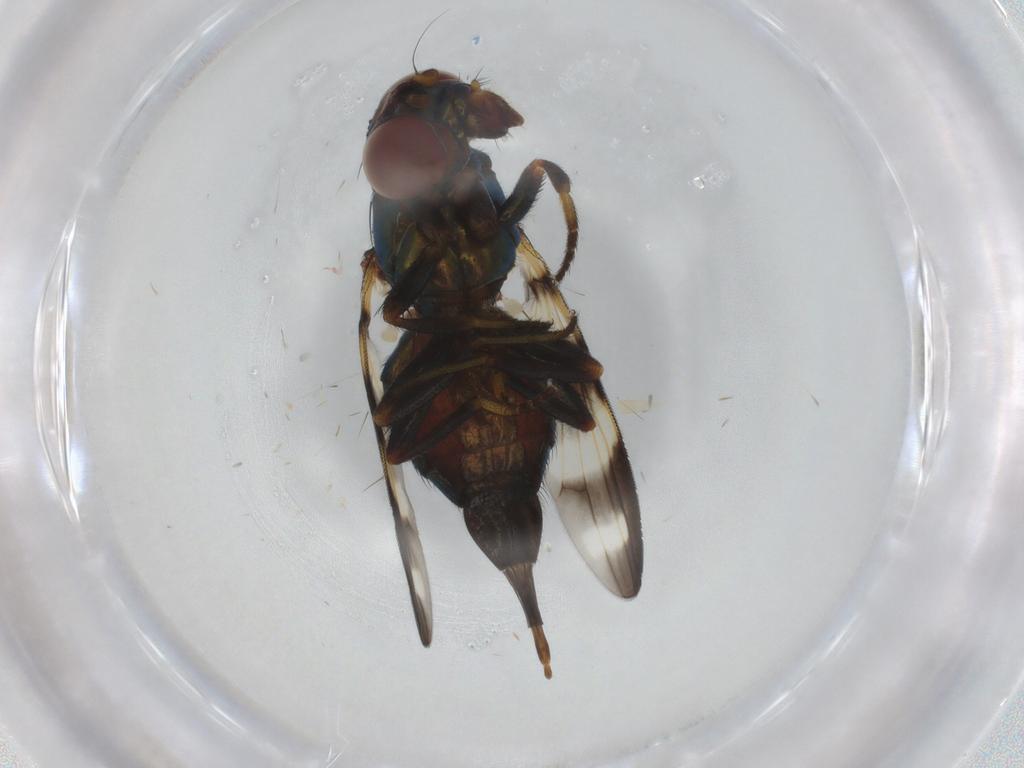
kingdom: Animalia
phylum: Arthropoda
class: Insecta
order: Diptera
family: Ulidiidae
